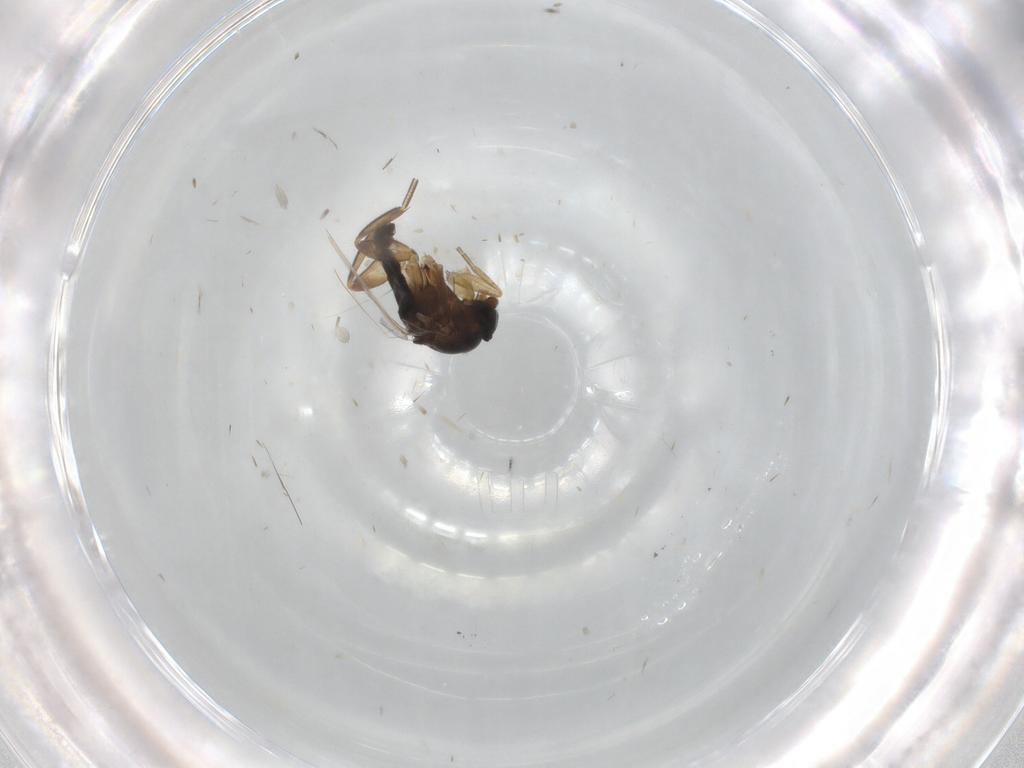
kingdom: Animalia
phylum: Arthropoda
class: Insecta
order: Diptera
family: Phoridae
